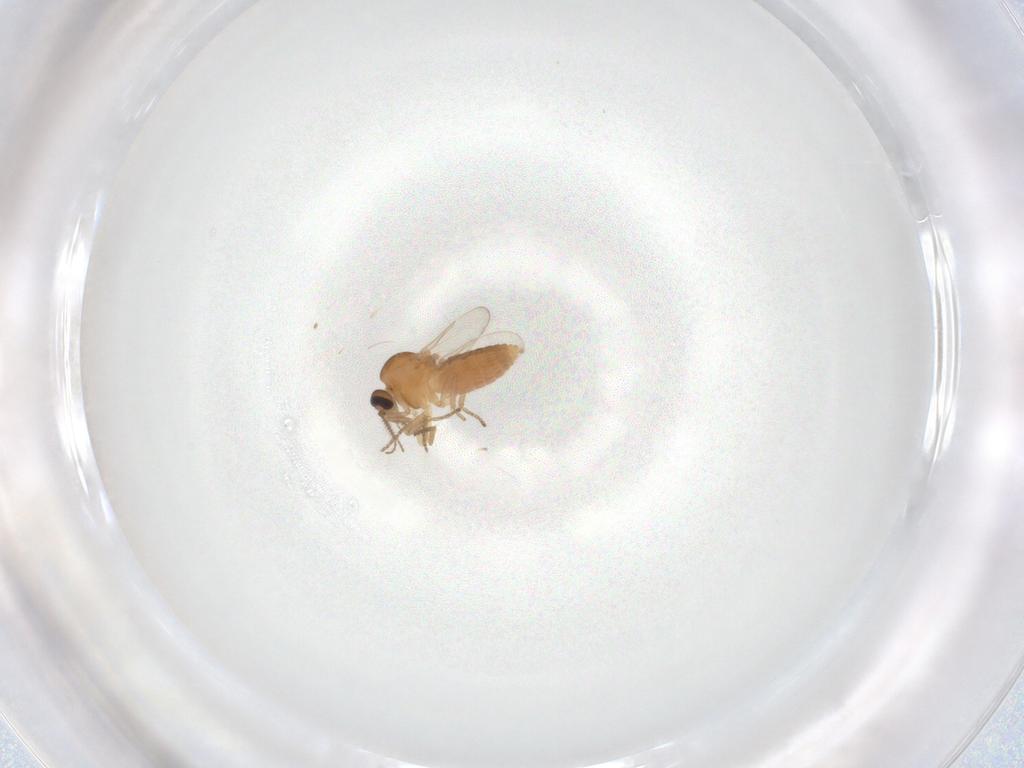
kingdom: Animalia
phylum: Arthropoda
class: Insecta
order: Diptera
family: Ceratopogonidae
